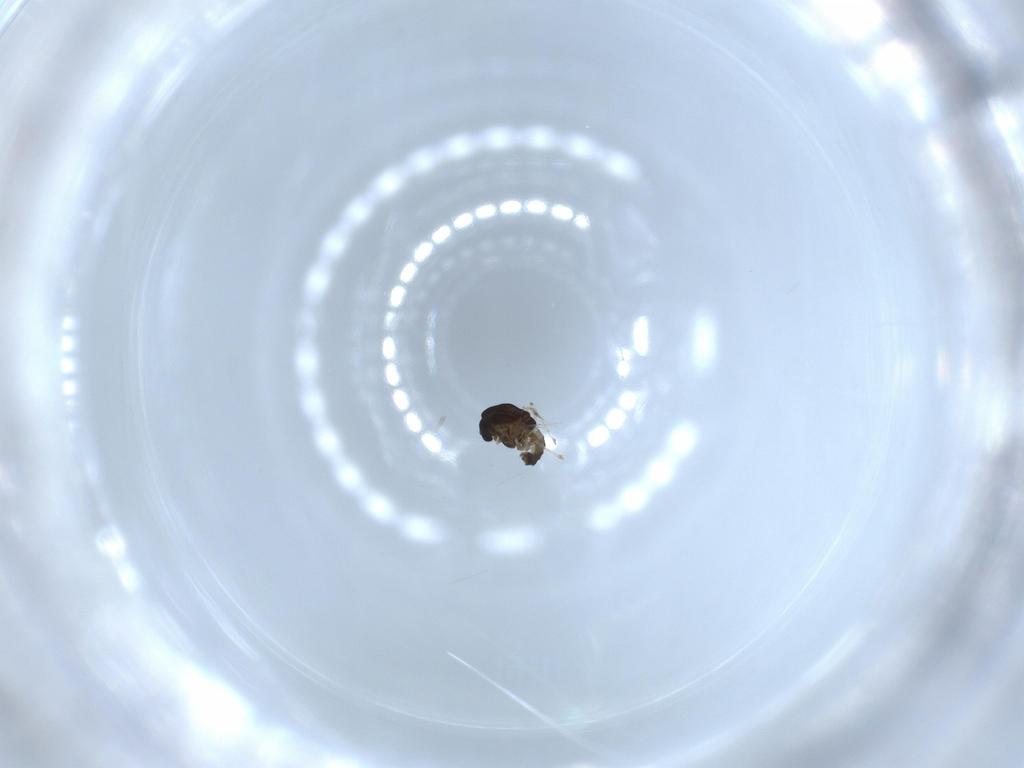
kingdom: Animalia
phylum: Arthropoda
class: Insecta
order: Diptera
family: Chironomidae
